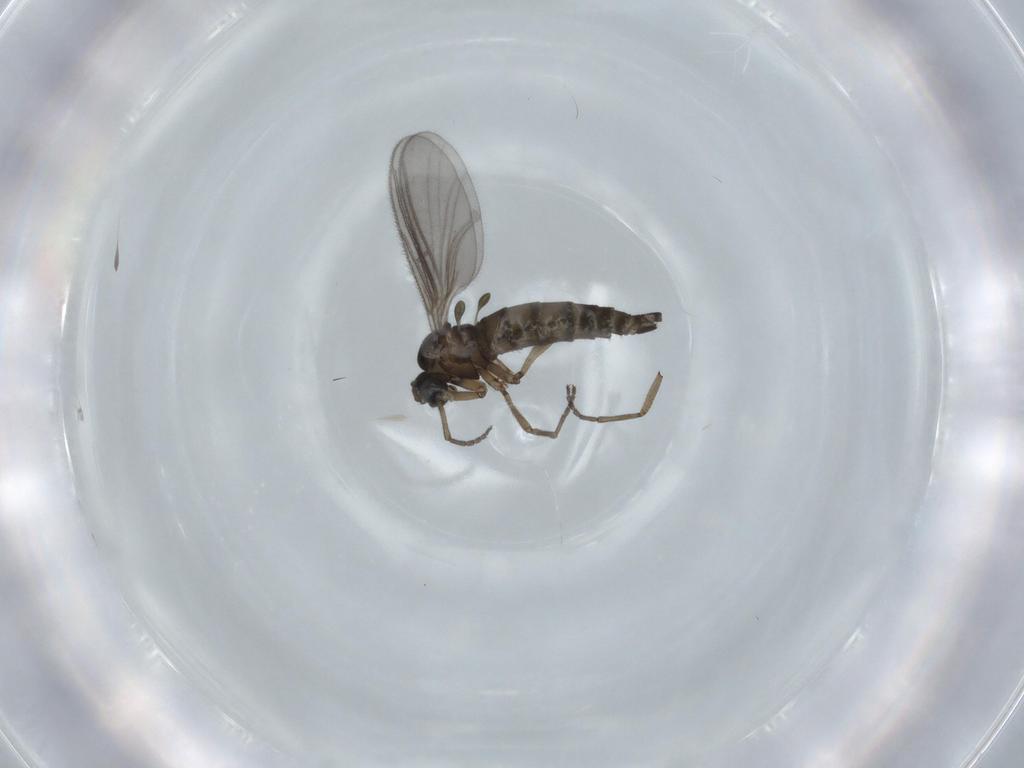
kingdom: Animalia
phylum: Arthropoda
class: Insecta
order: Diptera
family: Sciaridae
